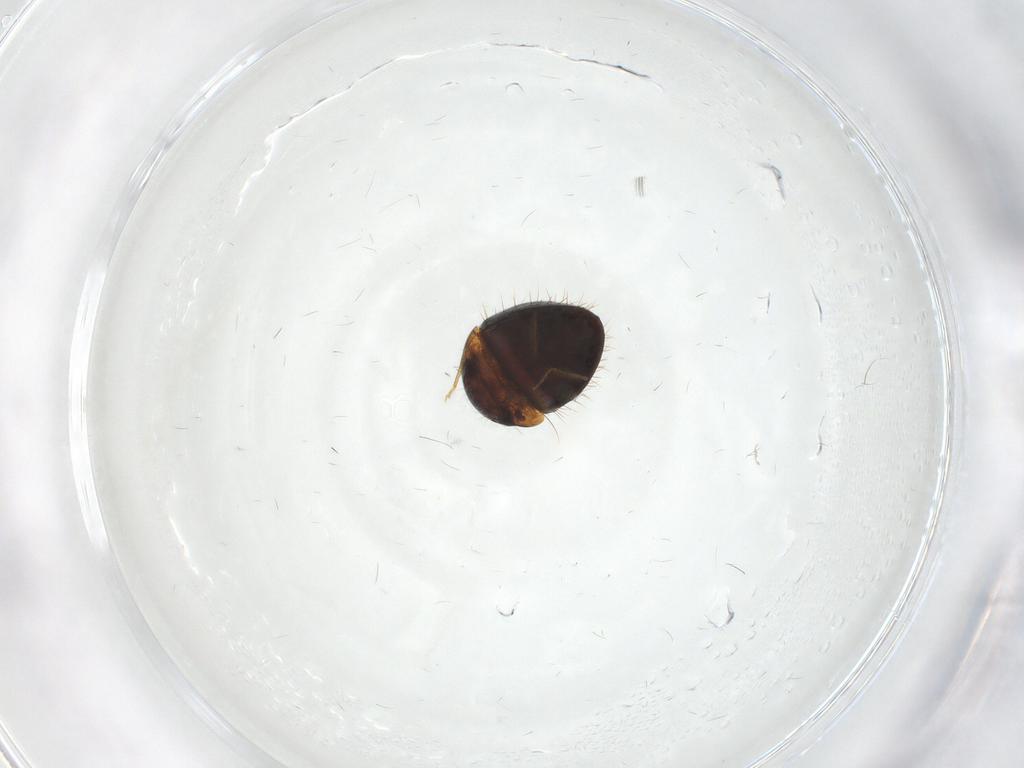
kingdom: Animalia
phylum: Arthropoda
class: Insecta
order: Coleoptera
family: Clambidae
